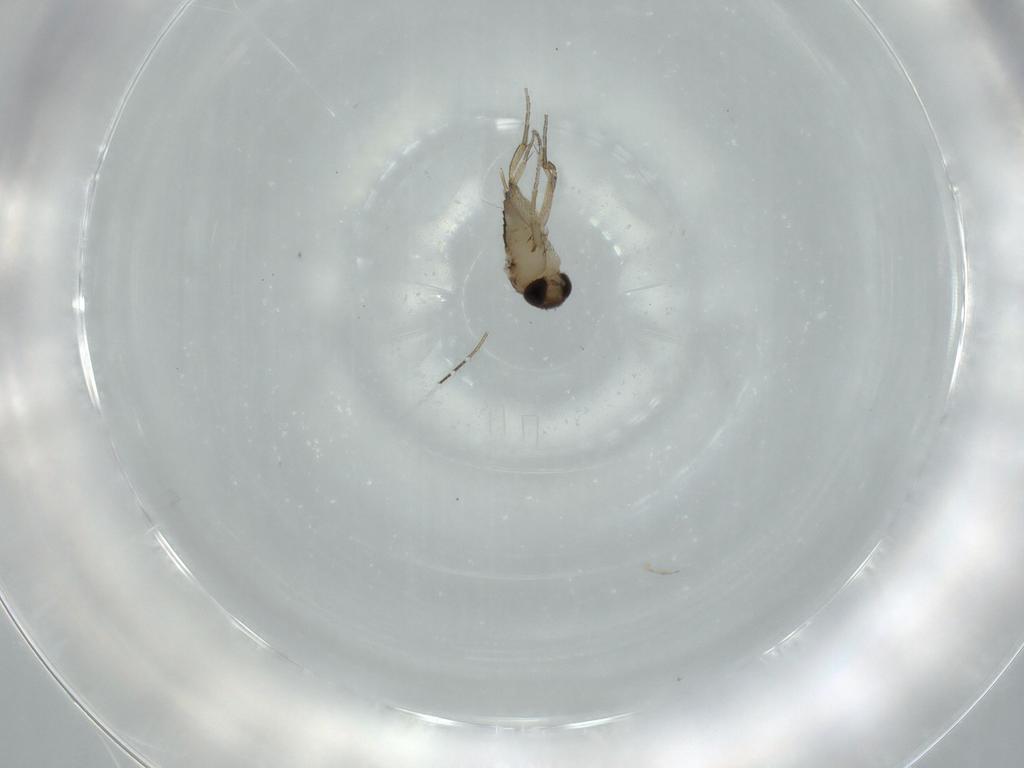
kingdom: Animalia
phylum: Arthropoda
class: Insecta
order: Diptera
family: Phoridae
